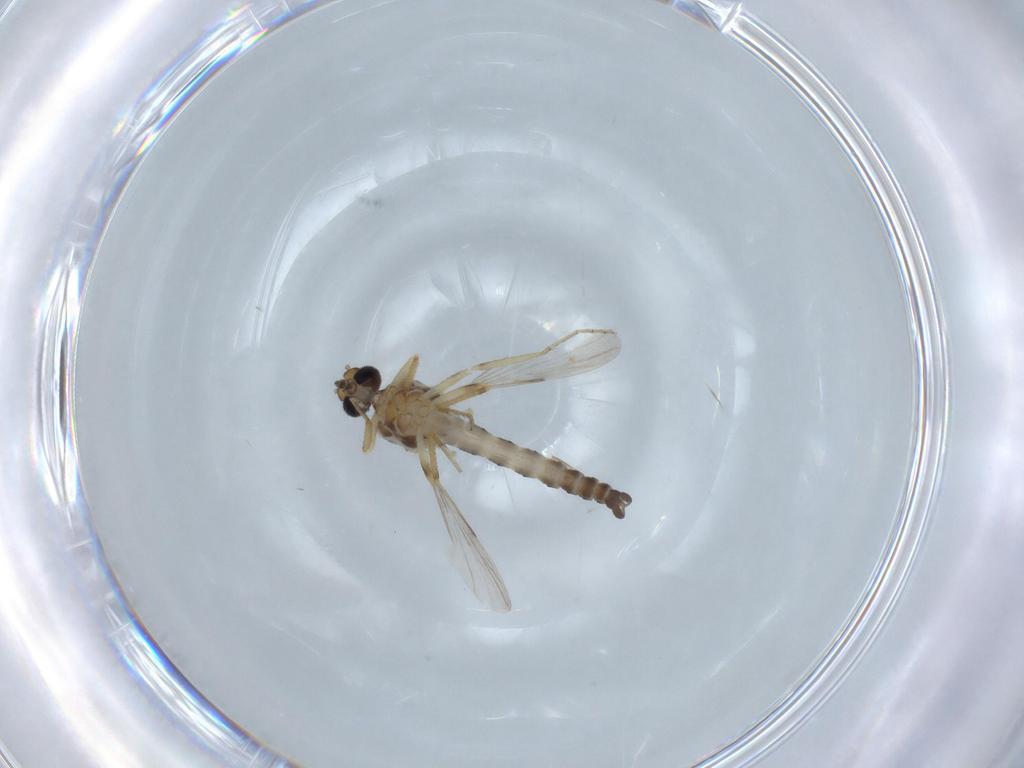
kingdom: Animalia
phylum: Arthropoda
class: Insecta
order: Diptera
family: Ceratopogonidae
